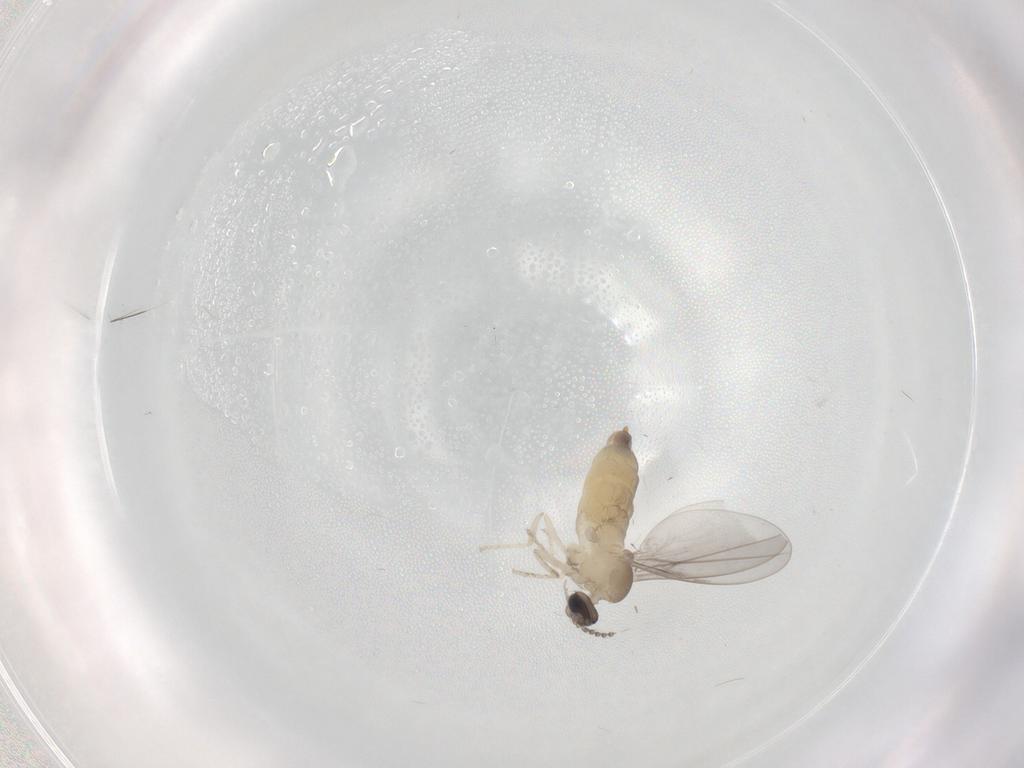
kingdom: Animalia
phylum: Arthropoda
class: Insecta
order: Diptera
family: Cecidomyiidae
